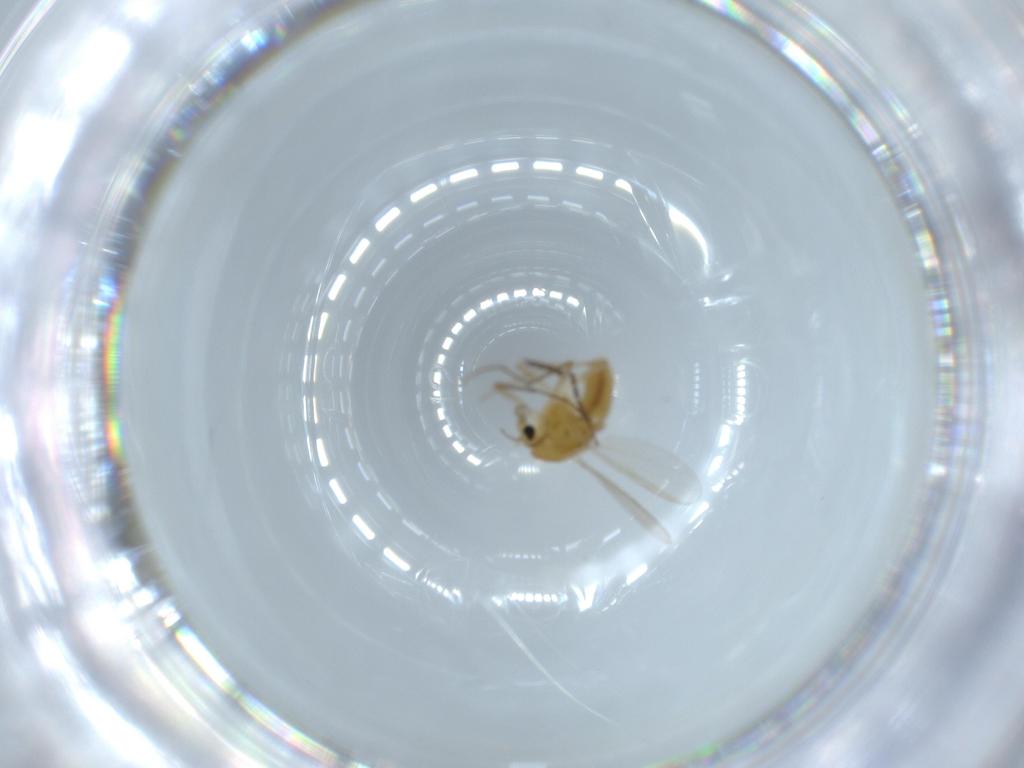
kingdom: Animalia
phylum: Arthropoda
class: Insecta
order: Diptera
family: Chironomidae
